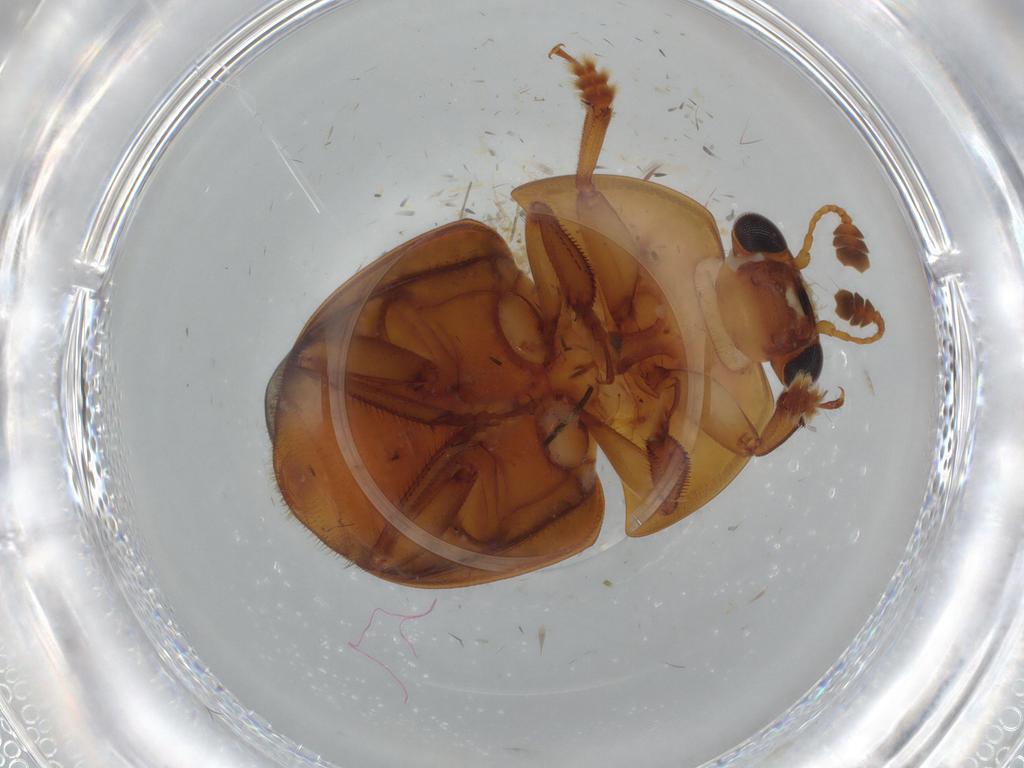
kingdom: Animalia
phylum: Arthropoda
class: Insecta
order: Coleoptera
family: Nitidulidae
